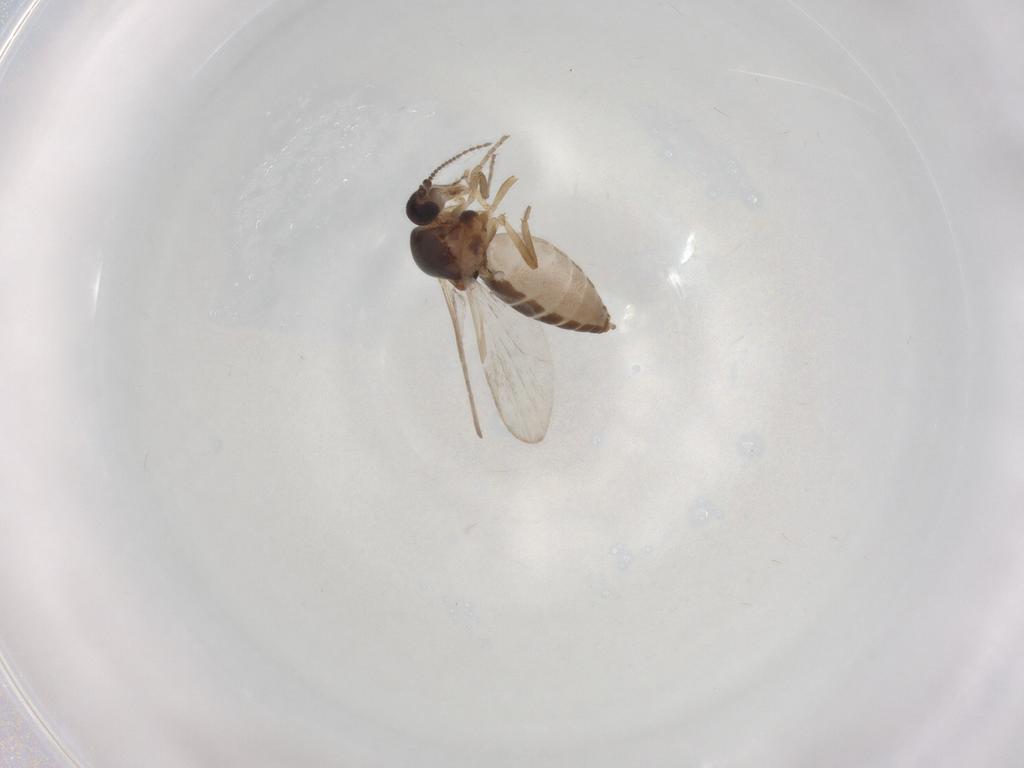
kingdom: Animalia
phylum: Arthropoda
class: Insecta
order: Diptera
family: Ceratopogonidae
